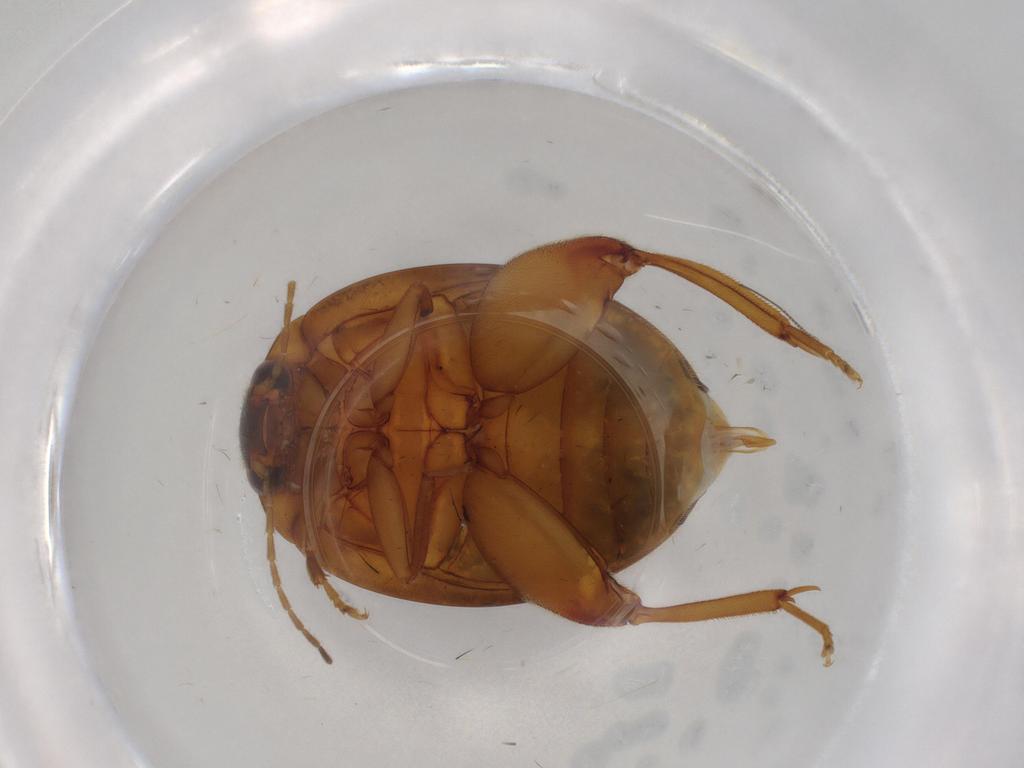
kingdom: Animalia
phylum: Arthropoda
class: Insecta
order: Coleoptera
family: Scirtidae
